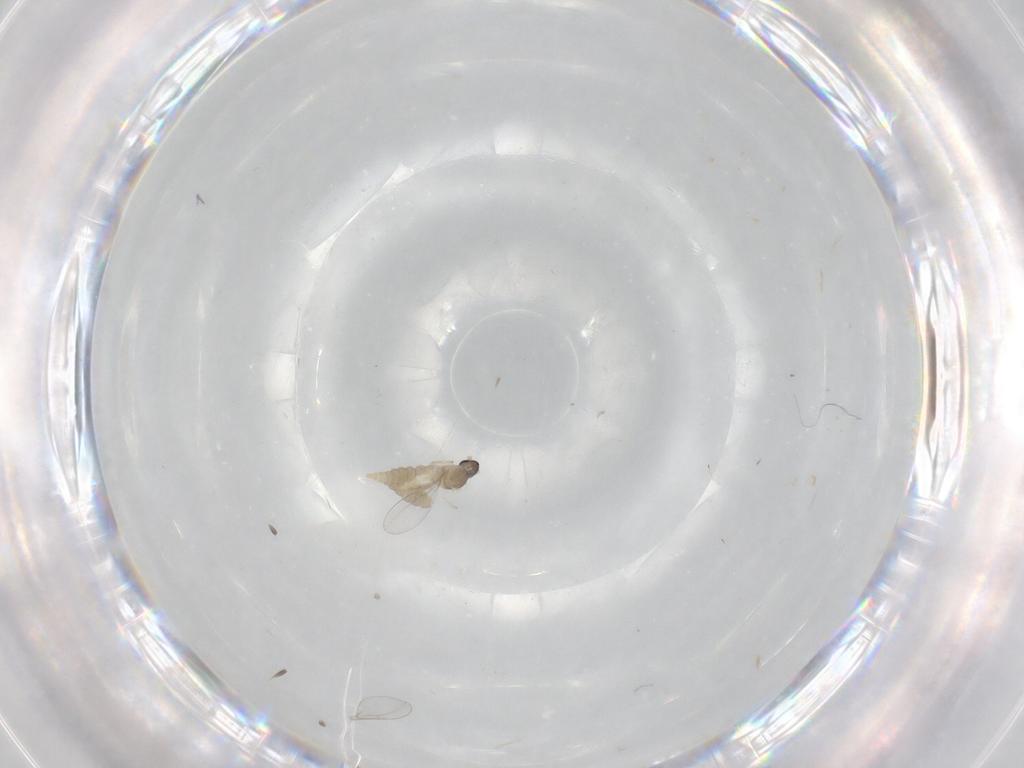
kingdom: Animalia
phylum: Arthropoda
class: Insecta
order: Diptera
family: Cecidomyiidae
